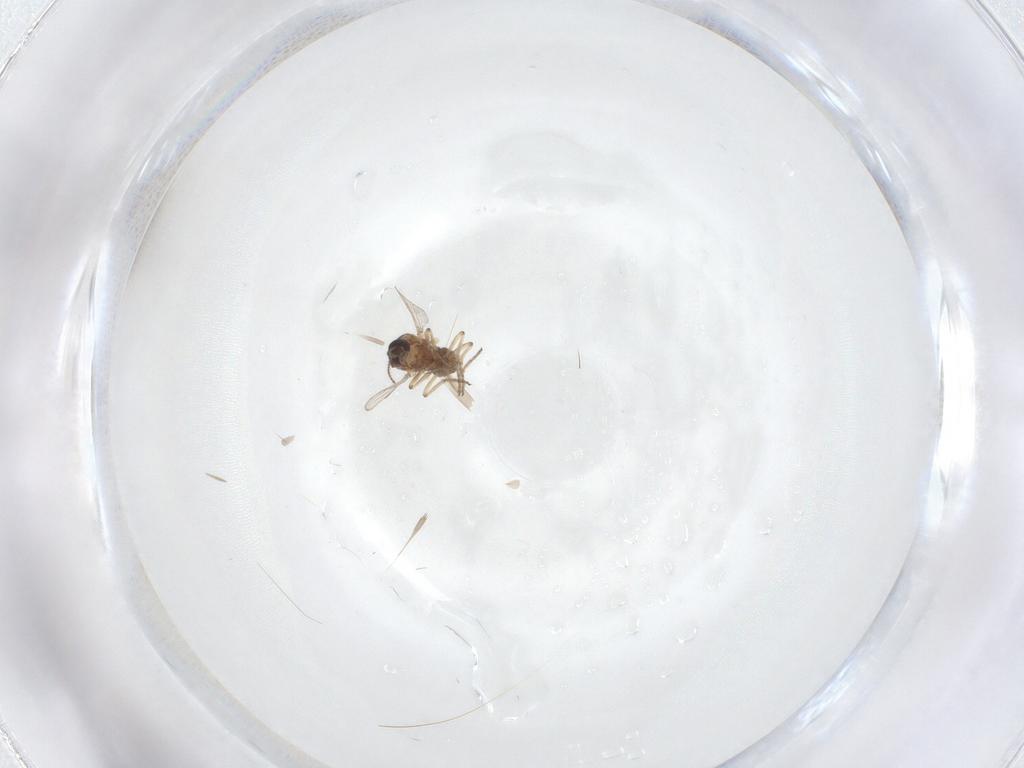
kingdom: Animalia
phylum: Arthropoda
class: Insecta
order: Diptera
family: Ceratopogonidae
